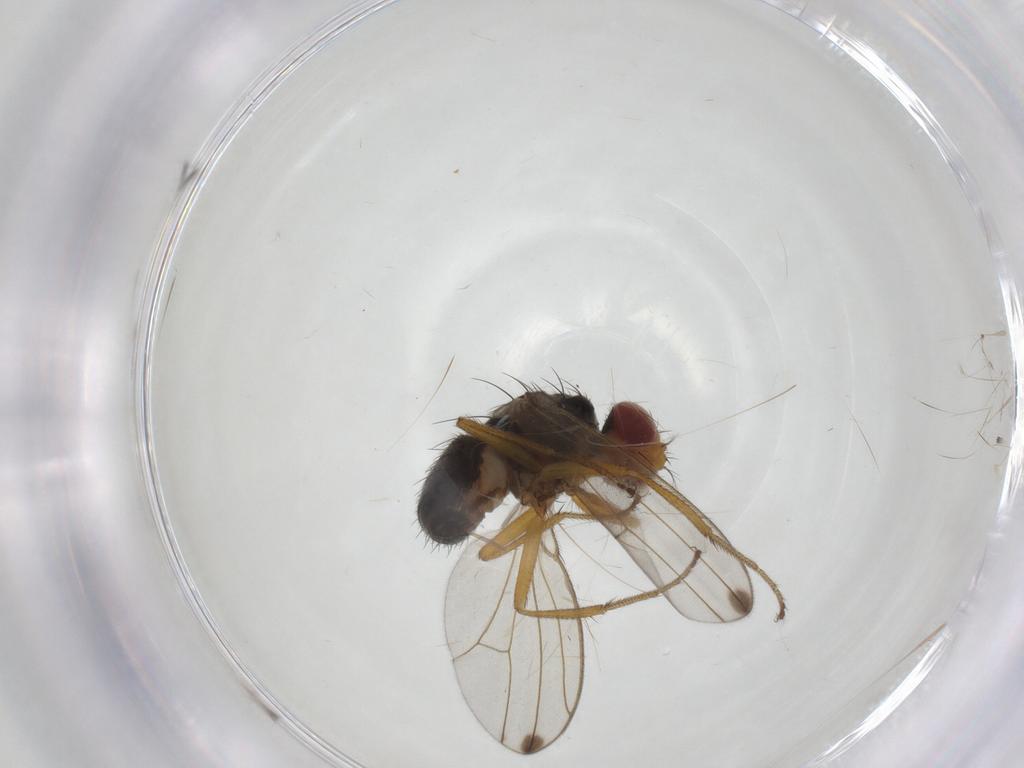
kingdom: Animalia
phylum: Arthropoda
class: Insecta
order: Diptera
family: Drosophilidae
